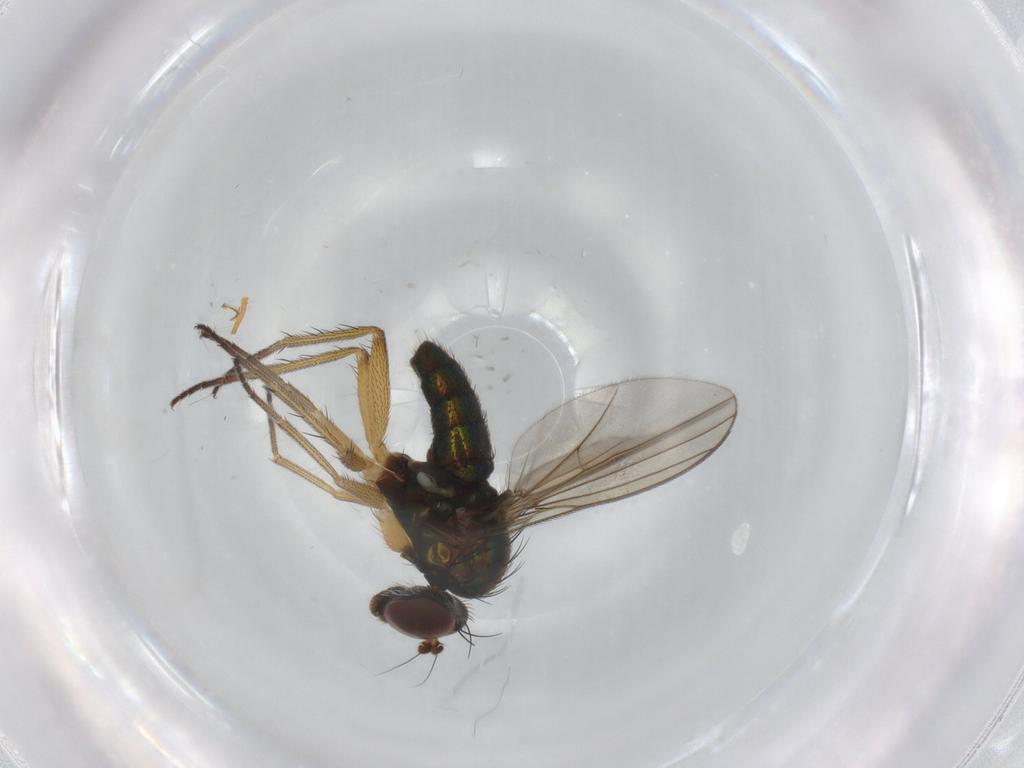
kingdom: Animalia
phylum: Arthropoda
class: Insecta
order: Diptera
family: Dolichopodidae
